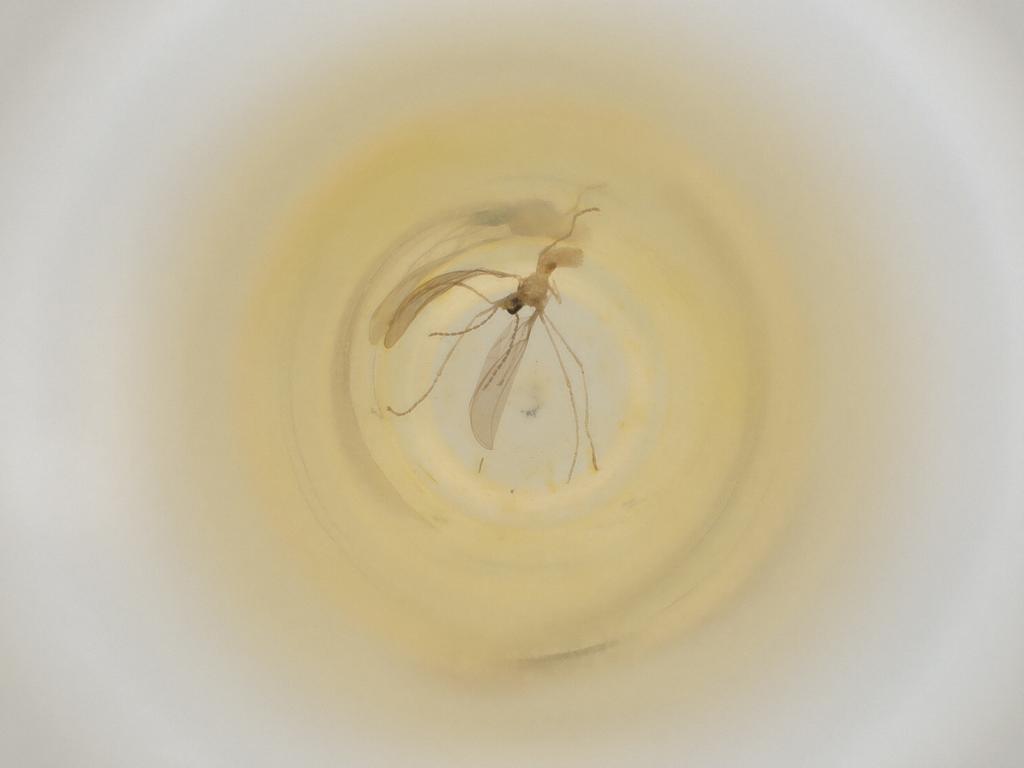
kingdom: Animalia
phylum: Arthropoda
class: Insecta
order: Diptera
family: Cecidomyiidae
